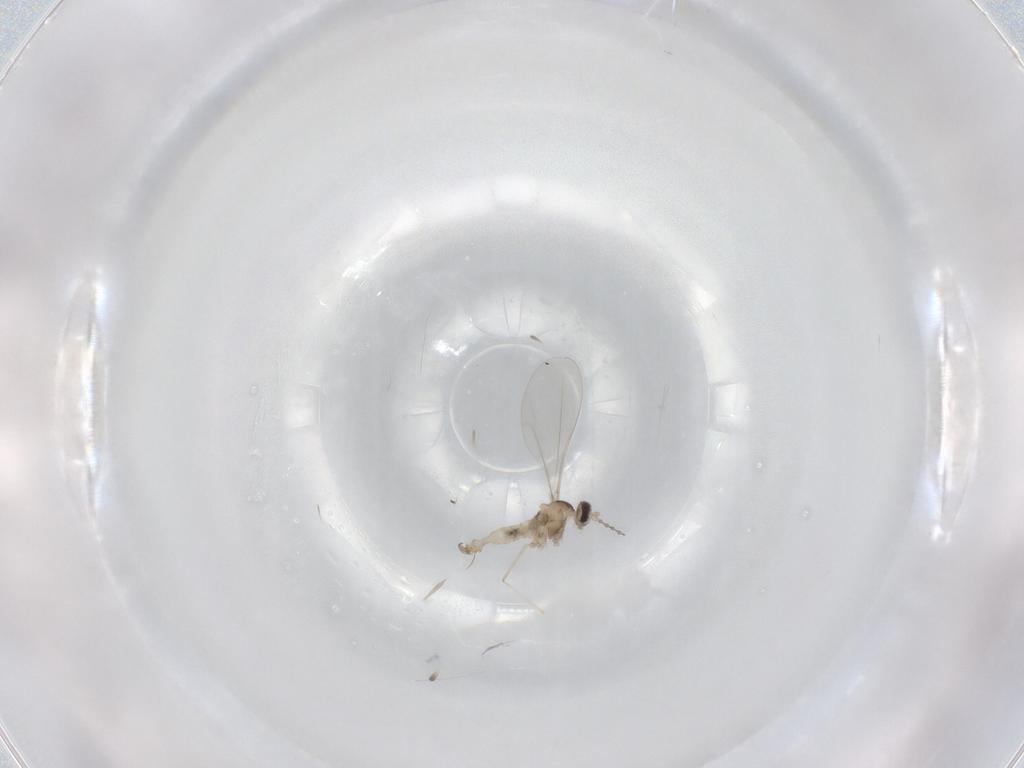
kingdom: Animalia
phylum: Arthropoda
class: Insecta
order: Diptera
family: Cecidomyiidae
